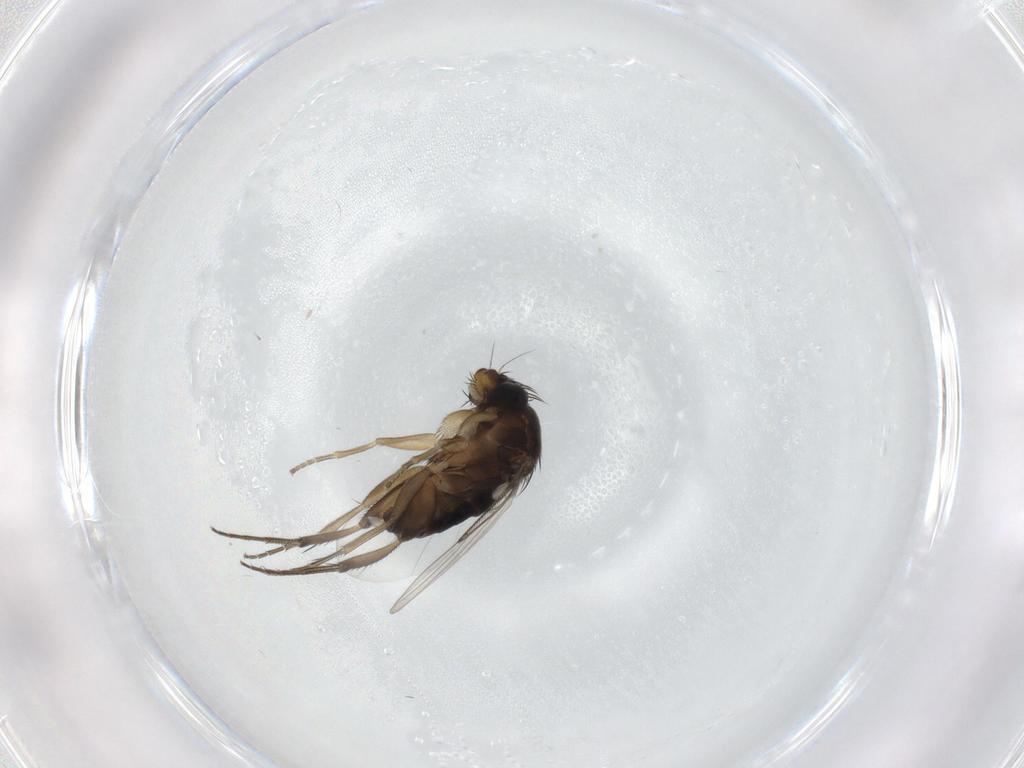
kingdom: Animalia
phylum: Arthropoda
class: Insecta
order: Diptera
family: Phoridae
